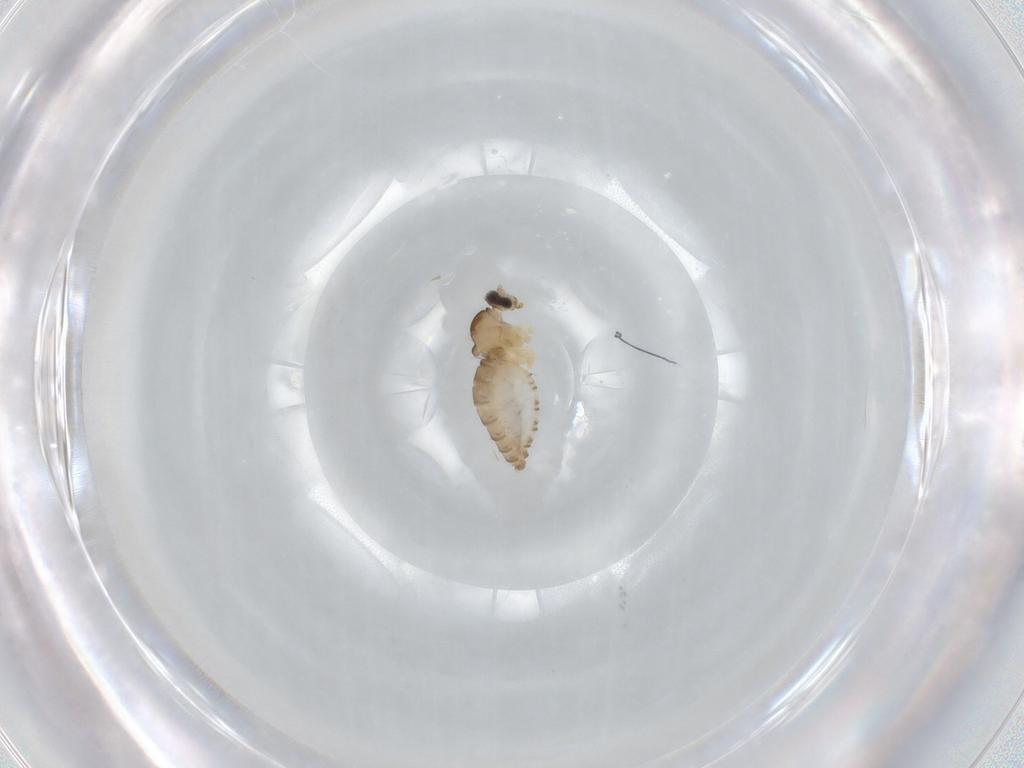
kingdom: Animalia
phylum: Arthropoda
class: Insecta
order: Diptera
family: Cecidomyiidae
